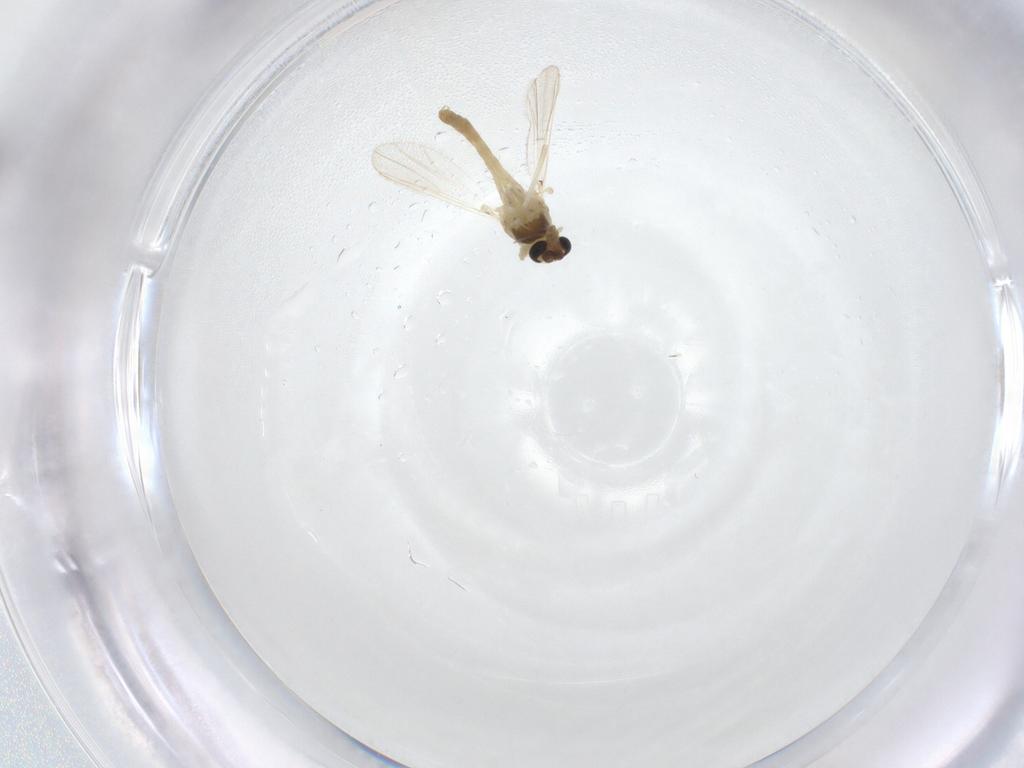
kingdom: Animalia
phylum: Arthropoda
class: Insecta
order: Diptera
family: Chironomidae
